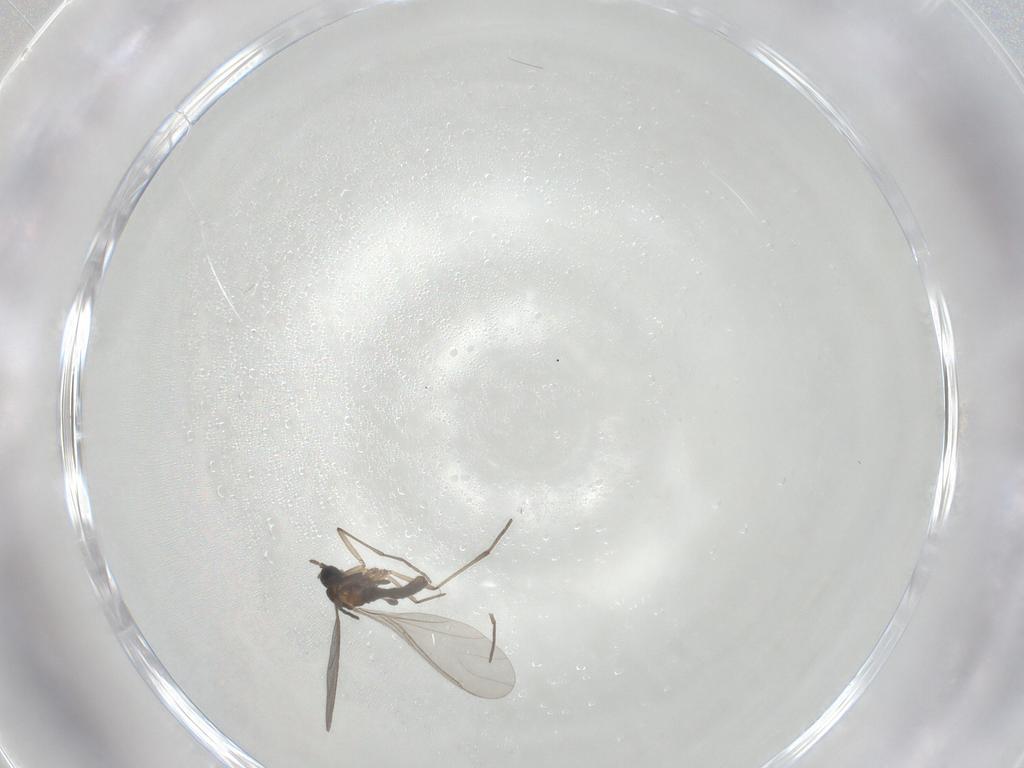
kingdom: Animalia
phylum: Arthropoda
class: Insecta
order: Diptera
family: Sciaridae
